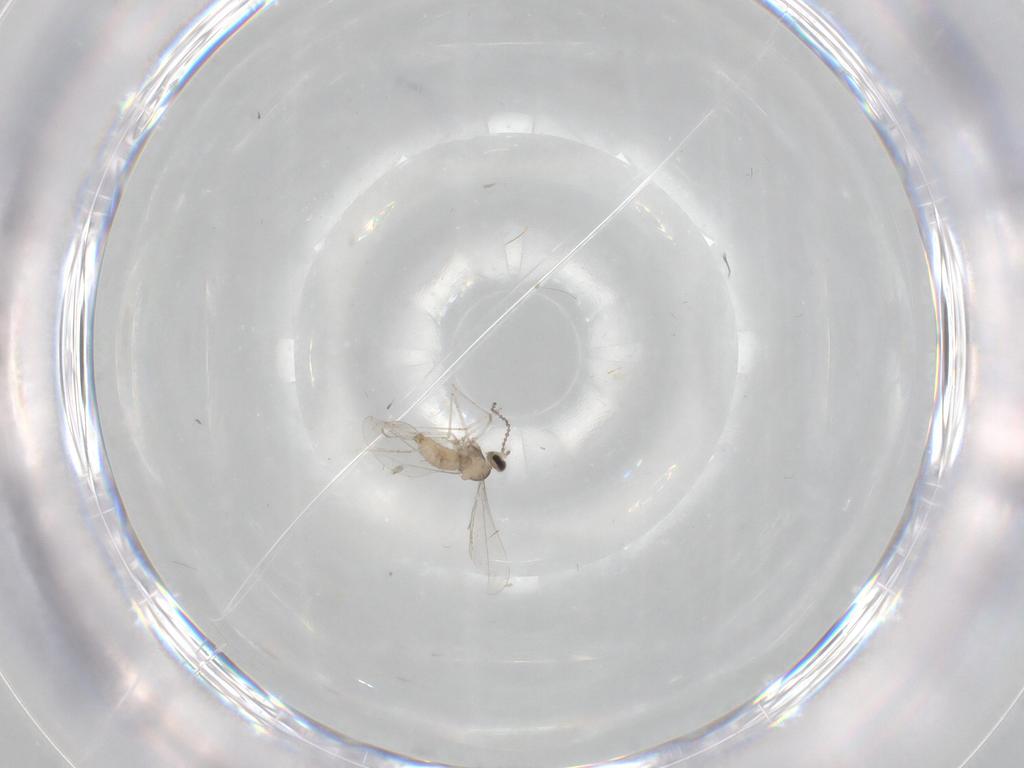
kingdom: Animalia
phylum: Arthropoda
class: Insecta
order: Diptera
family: Cecidomyiidae
